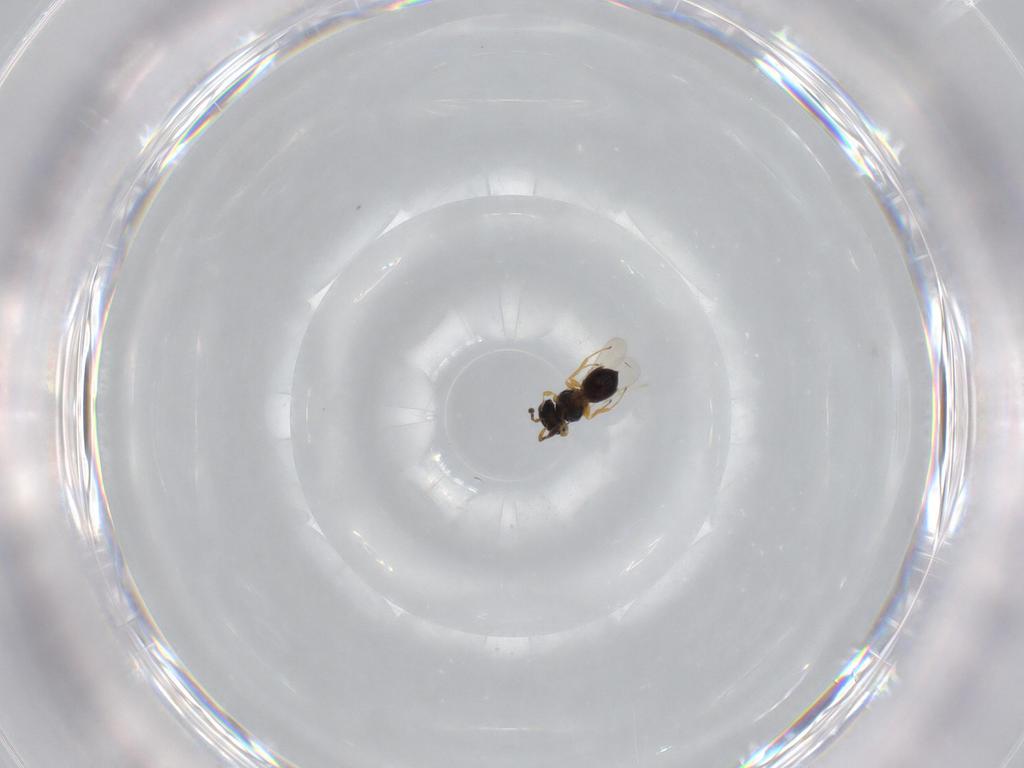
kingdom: Animalia
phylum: Arthropoda
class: Insecta
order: Hymenoptera
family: Scelionidae
